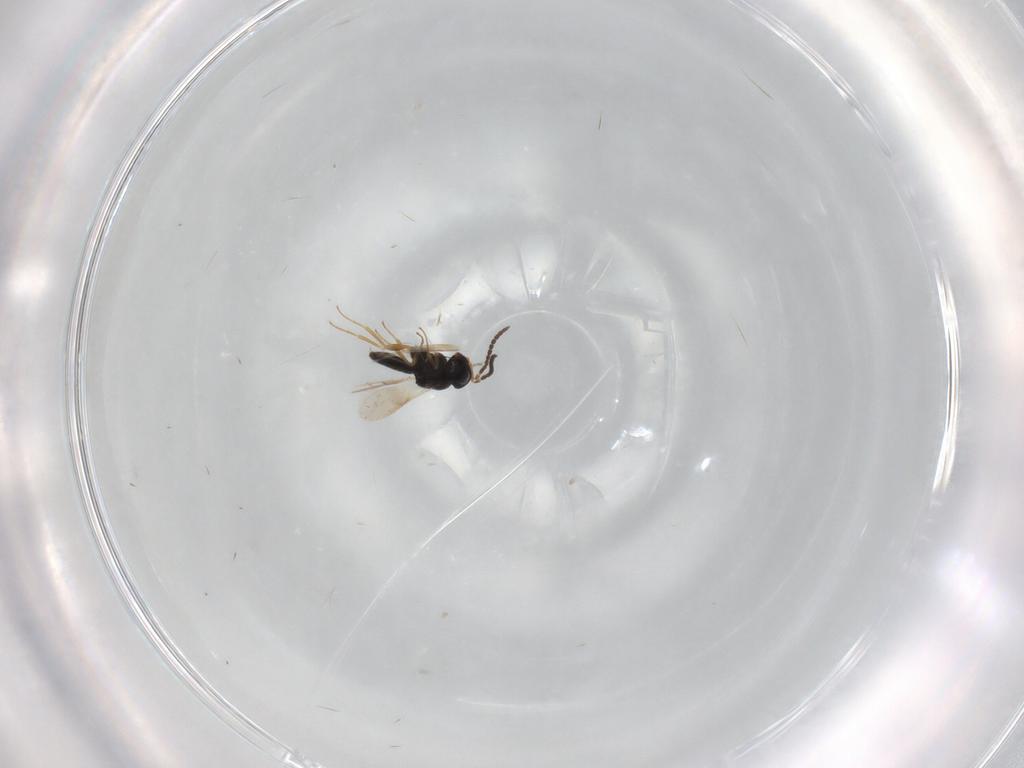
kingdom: Animalia
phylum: Arthropoda
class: Insecta
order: Hymenoptera
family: Scelionidae
